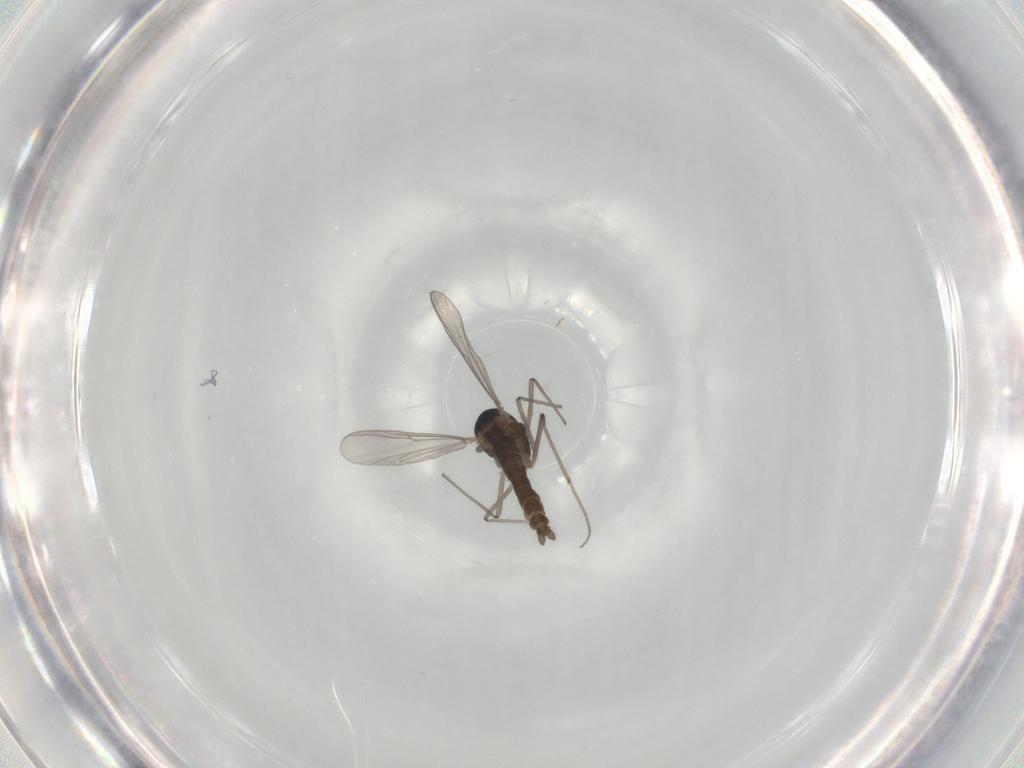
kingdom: Animalia
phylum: Arthropoda
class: Insecta
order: Diptera
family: Chironomidae
